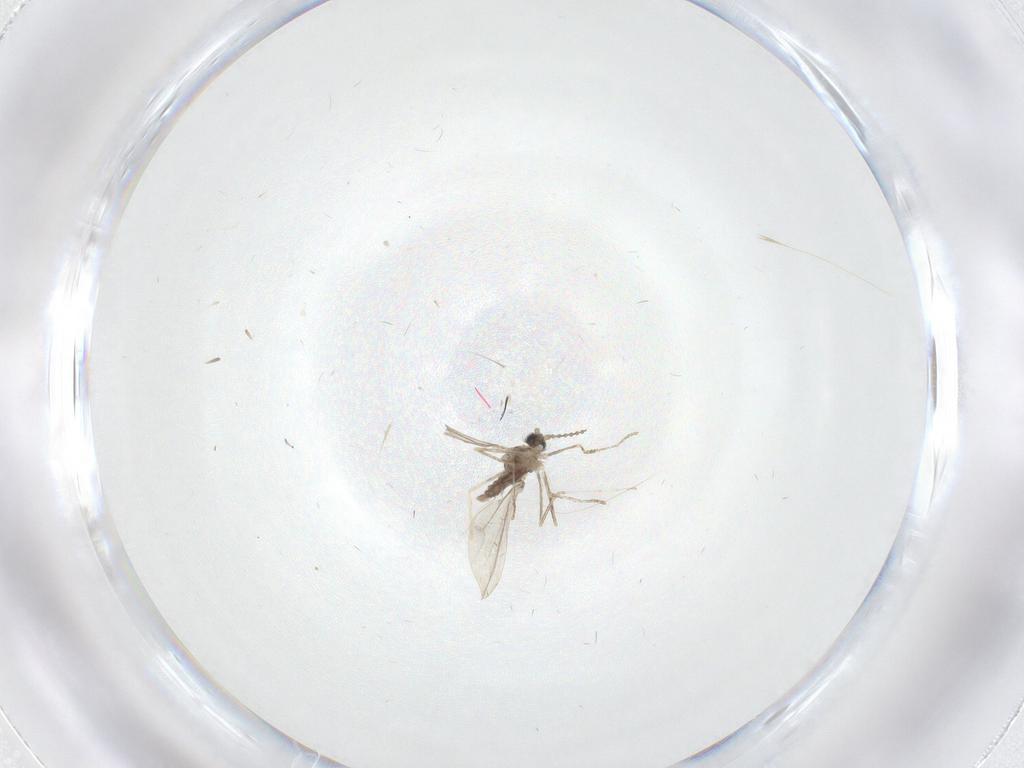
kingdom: Animalia
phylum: Arthropoda
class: Insecta
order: Diptera
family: Cecidomyiidae
